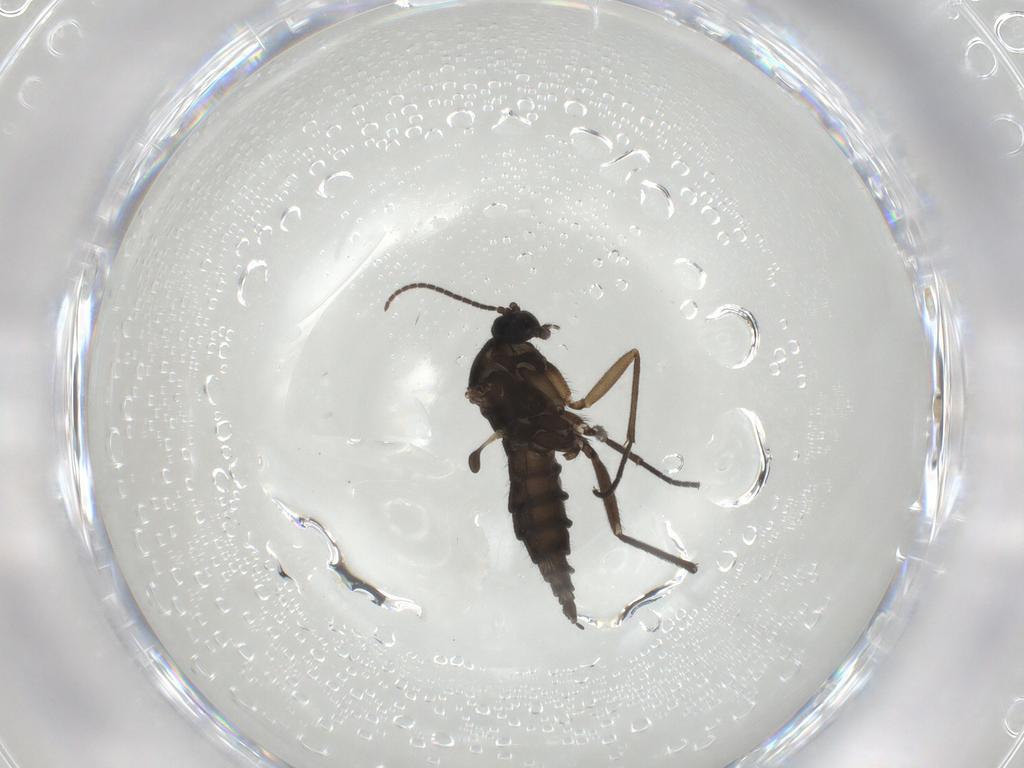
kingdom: Animalia
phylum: Arthropoda
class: Insecta
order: Diptera
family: Sciaridae
